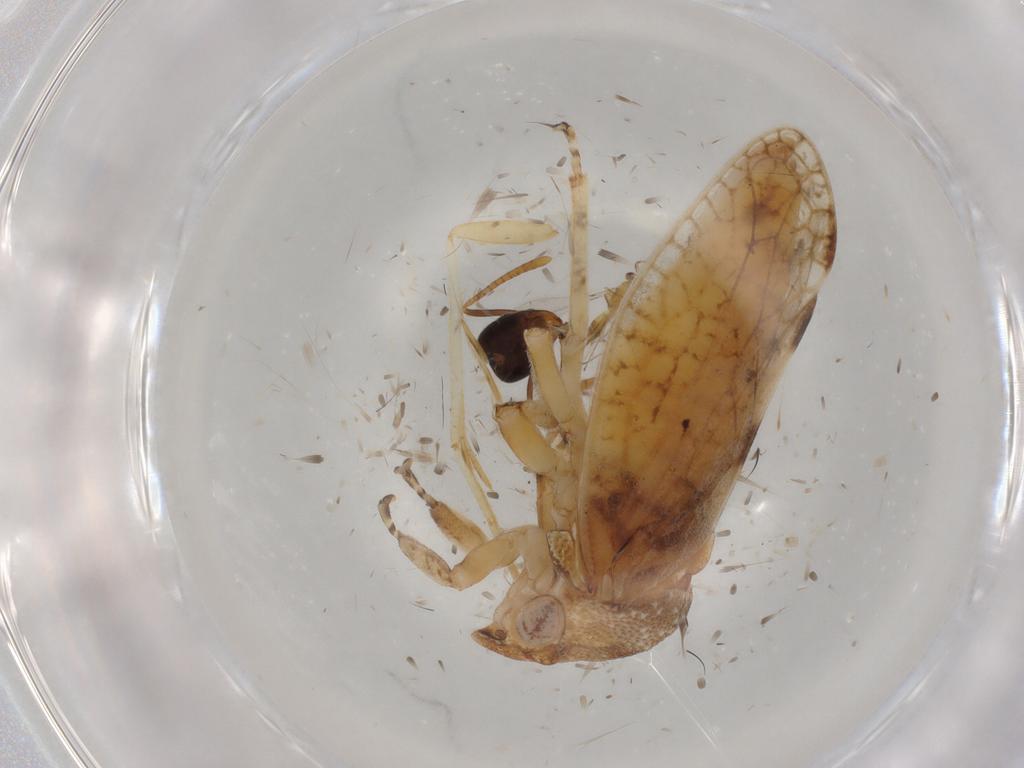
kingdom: Animalia
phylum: Arthropoda
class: Insecta
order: Hemiptera
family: Cicadellidae
